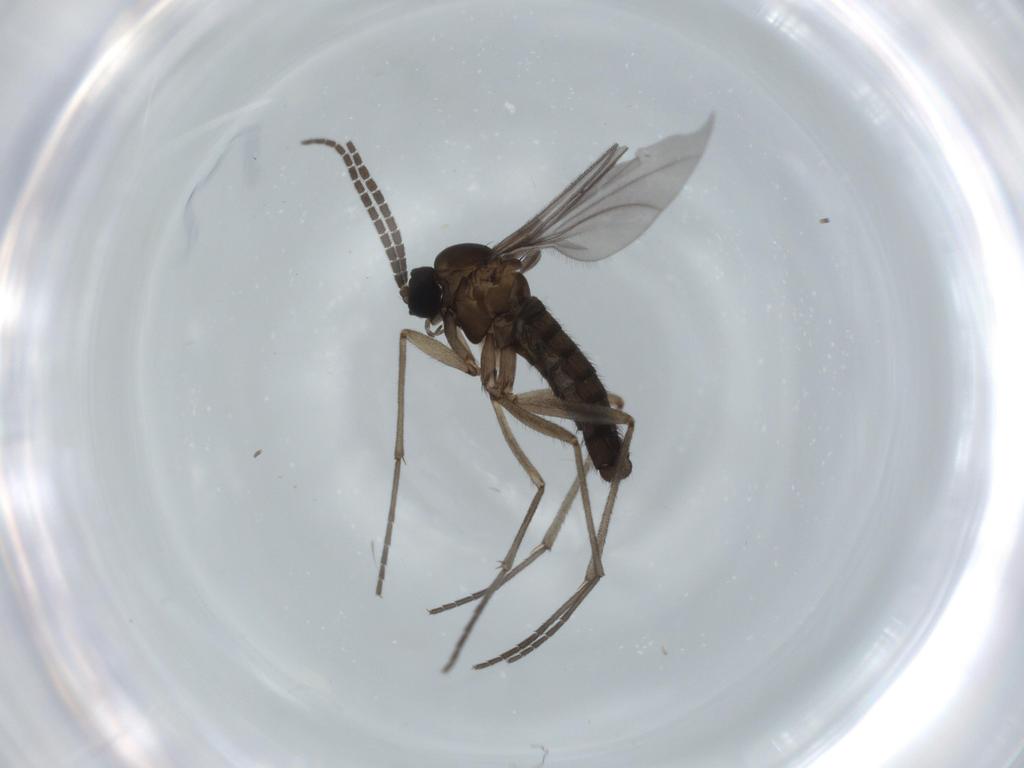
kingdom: Animalia
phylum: Arthropoda
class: Insecta
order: Diptera
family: Sciaridae
